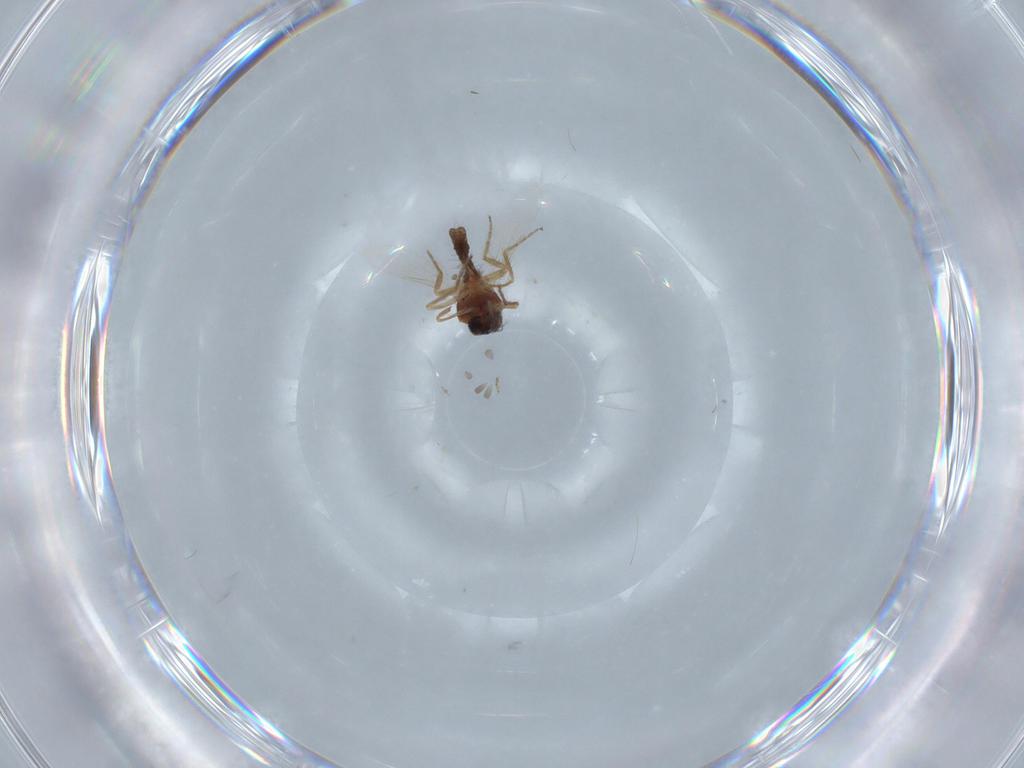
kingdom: Animalia
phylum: Arthropoda
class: Insecta
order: Diptera
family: Ceratopogonidae
